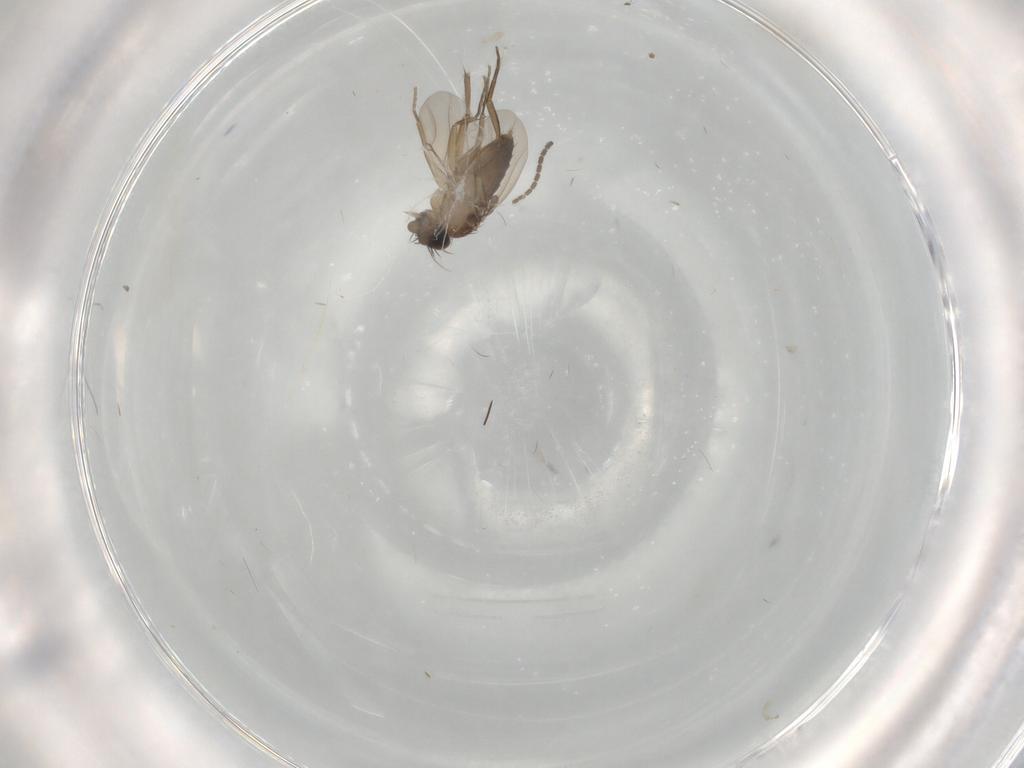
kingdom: Animalia
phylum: Arthropoda
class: Insecta
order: Diptera
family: Phoridae
